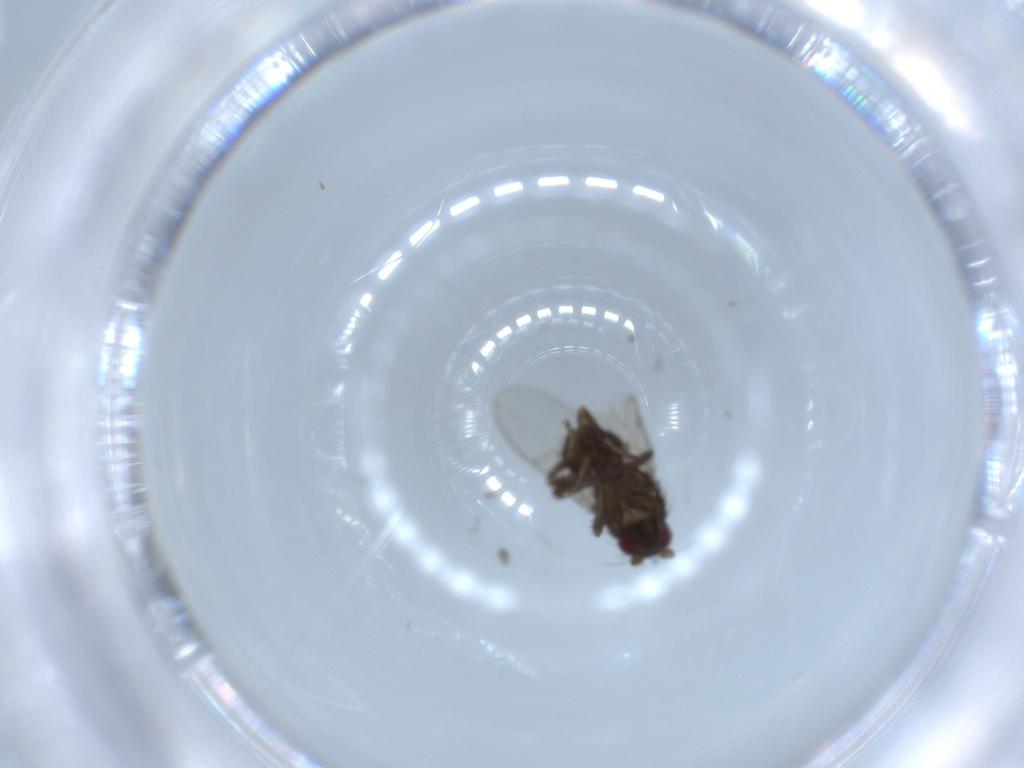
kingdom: Animalia
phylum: Arthropoda
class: Insecta
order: Diptera
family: Sphaeroceridae
